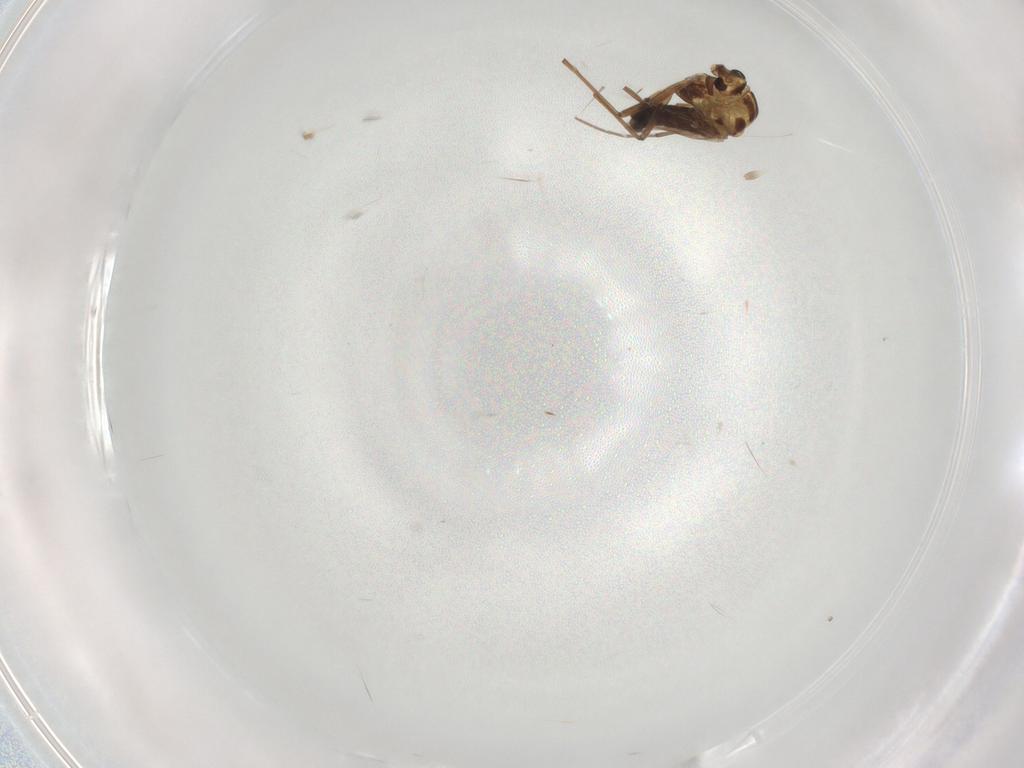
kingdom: Animalia
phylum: Arthropoda
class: Insecta
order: Diptera
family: Chironomidae
